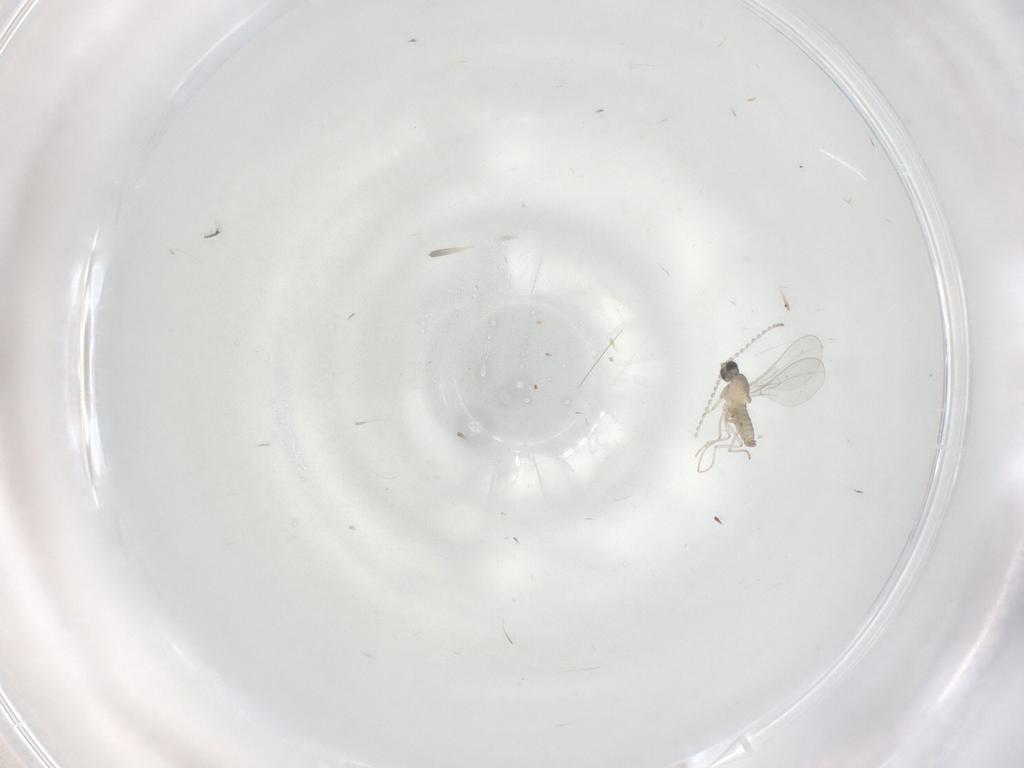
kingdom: Animalia
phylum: Arthropoda
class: Insecta
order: Diptera
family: Cecidomyiidae
